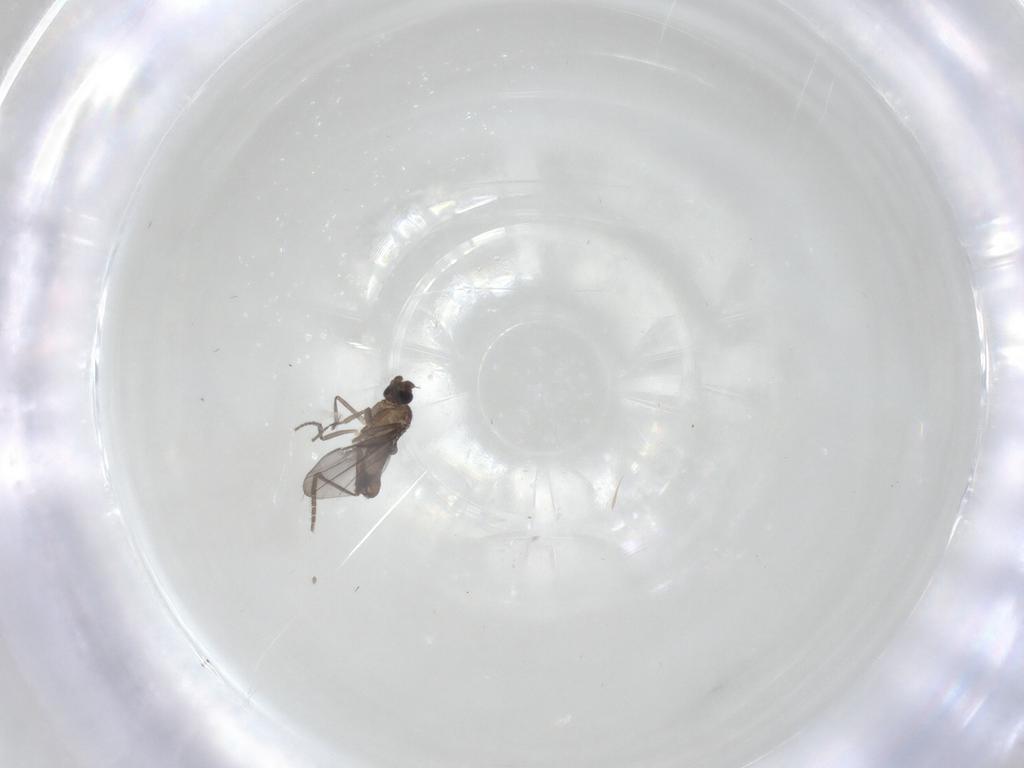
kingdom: Animalia
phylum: Arthropoda
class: Insecta
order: Diptera
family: Phoridae
